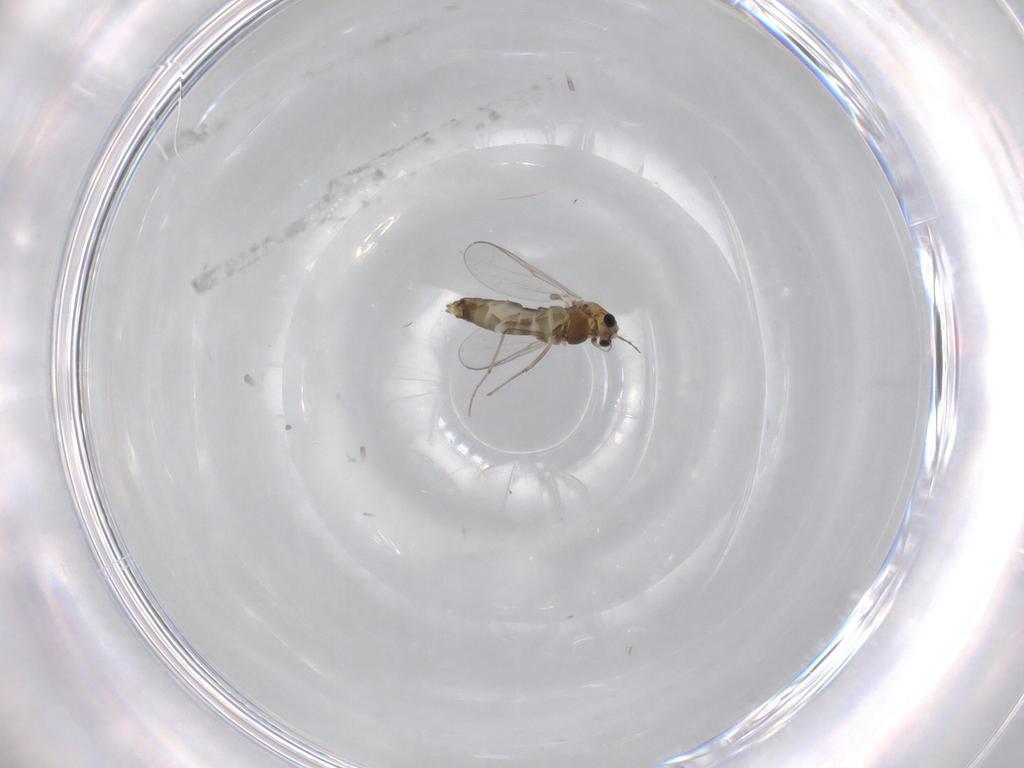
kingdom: Animalia
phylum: Arthropoda
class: Insecta
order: Diptera
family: Chironomidae
